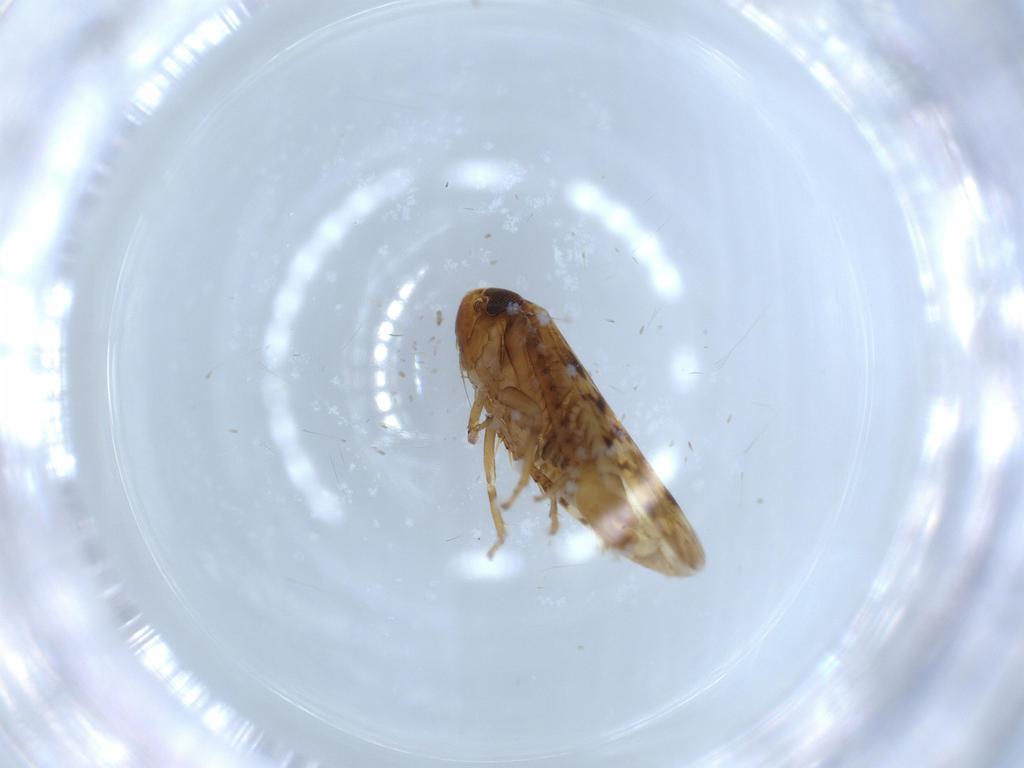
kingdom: Animalia
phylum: Arthropoda
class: Insecta
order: Hemiptera
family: Cicadellidae
